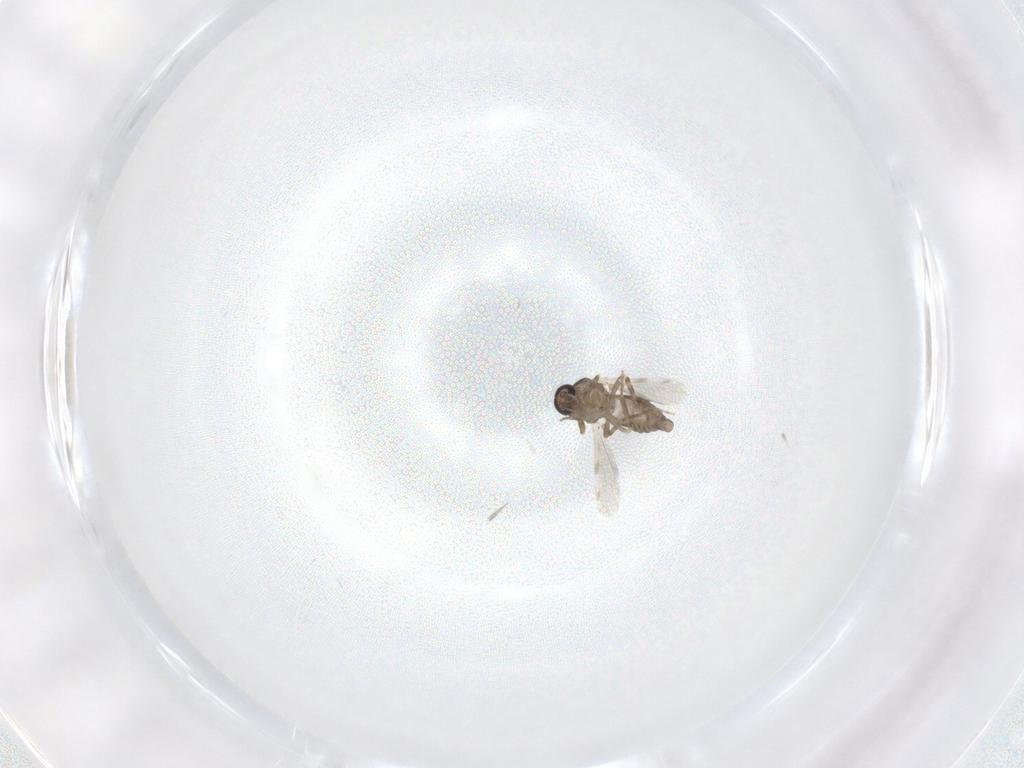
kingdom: Animalia
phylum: Arthropoda
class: Insecta
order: Diptera
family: Ceratopogonidae
